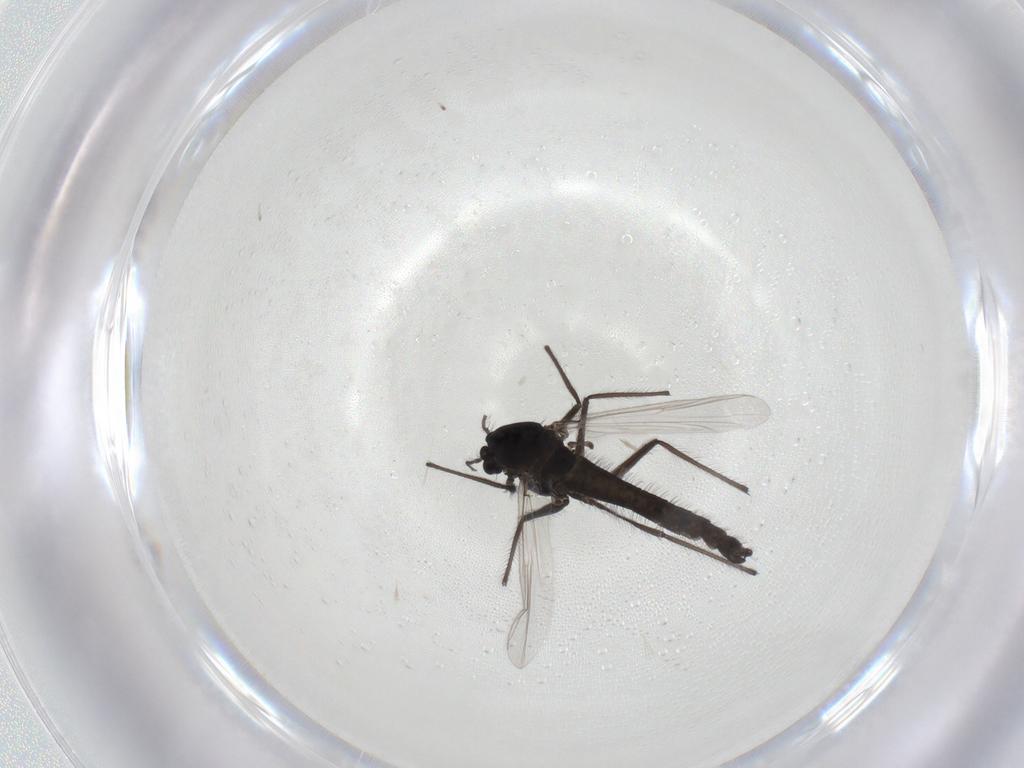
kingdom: Animalia
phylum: Arthropoda
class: Insecta
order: Diptera
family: Chironomidae
